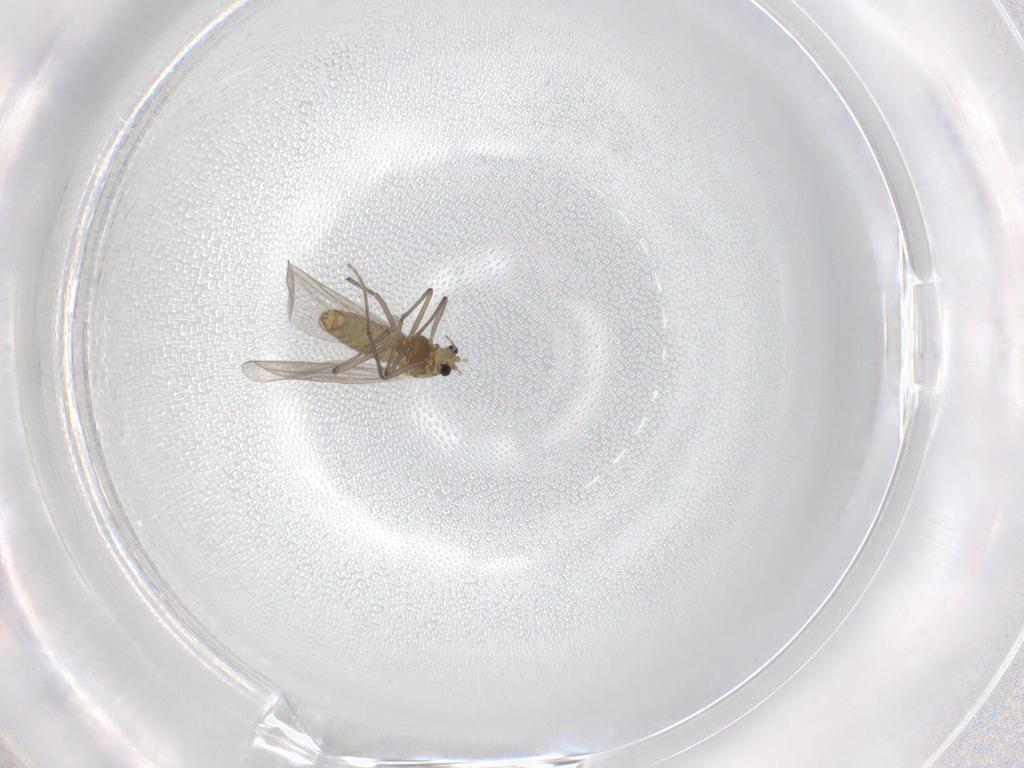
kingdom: Animalia
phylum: Arthropoda
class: Insecta
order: Diptera
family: Chironomidae
